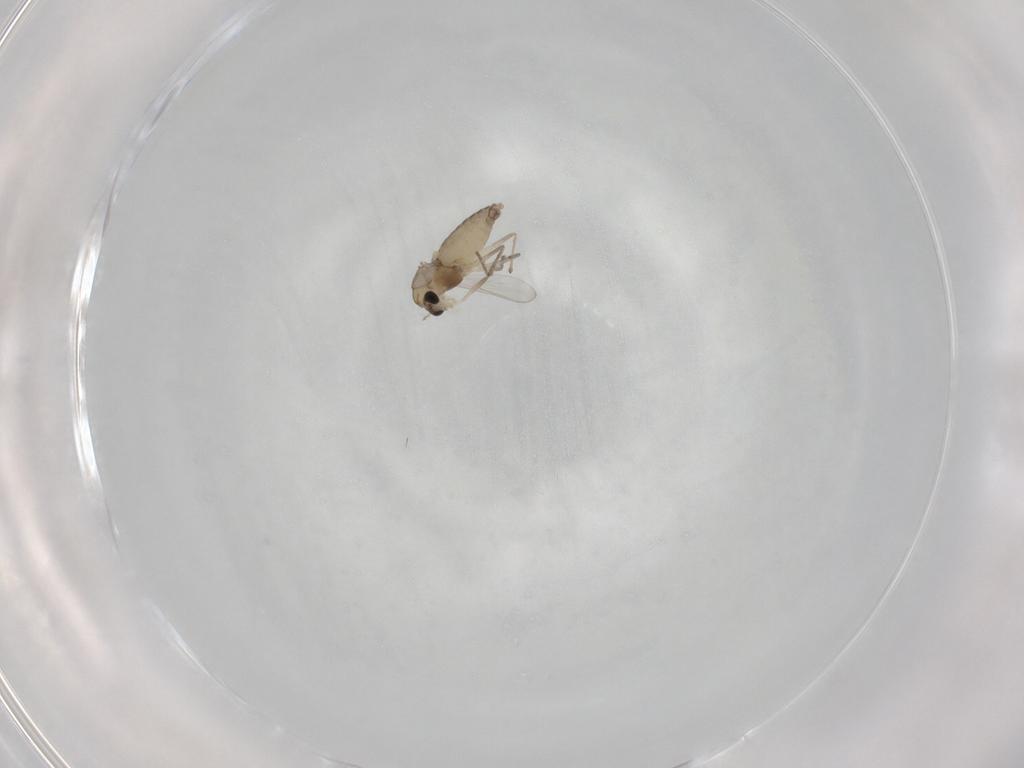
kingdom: Animalia
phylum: Arthropoda
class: Insecta
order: Diptera
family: Chironomidae
